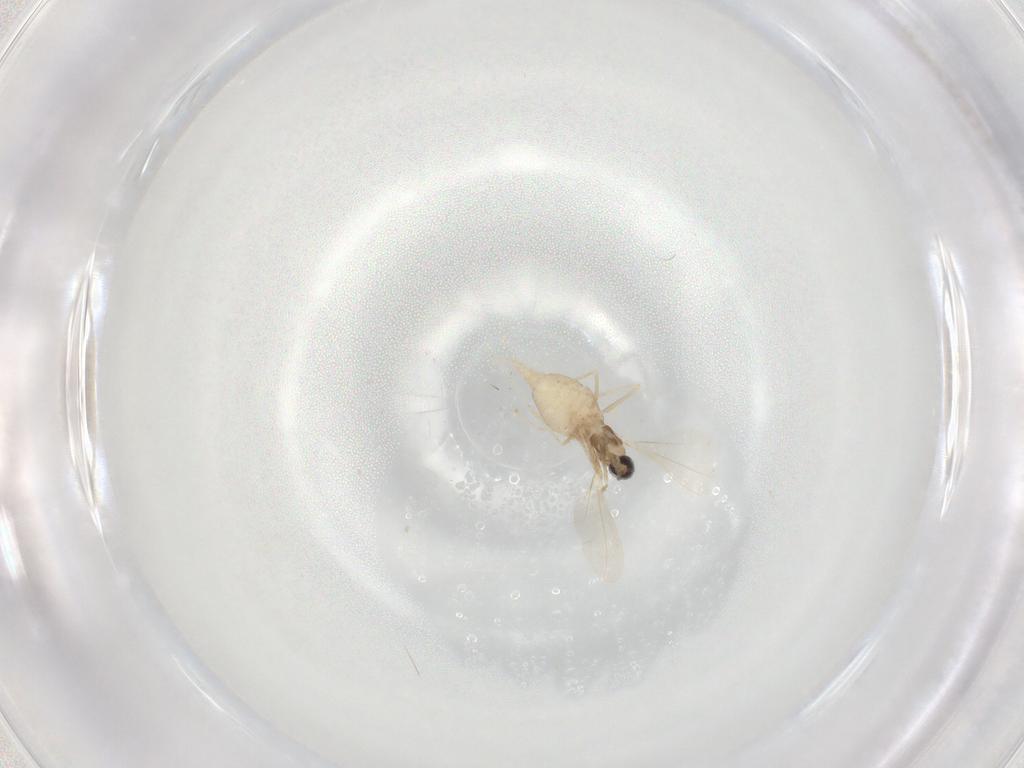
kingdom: Animalia
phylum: Arthropoda
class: Insecta
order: Diptera
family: Cecidomyiidae
